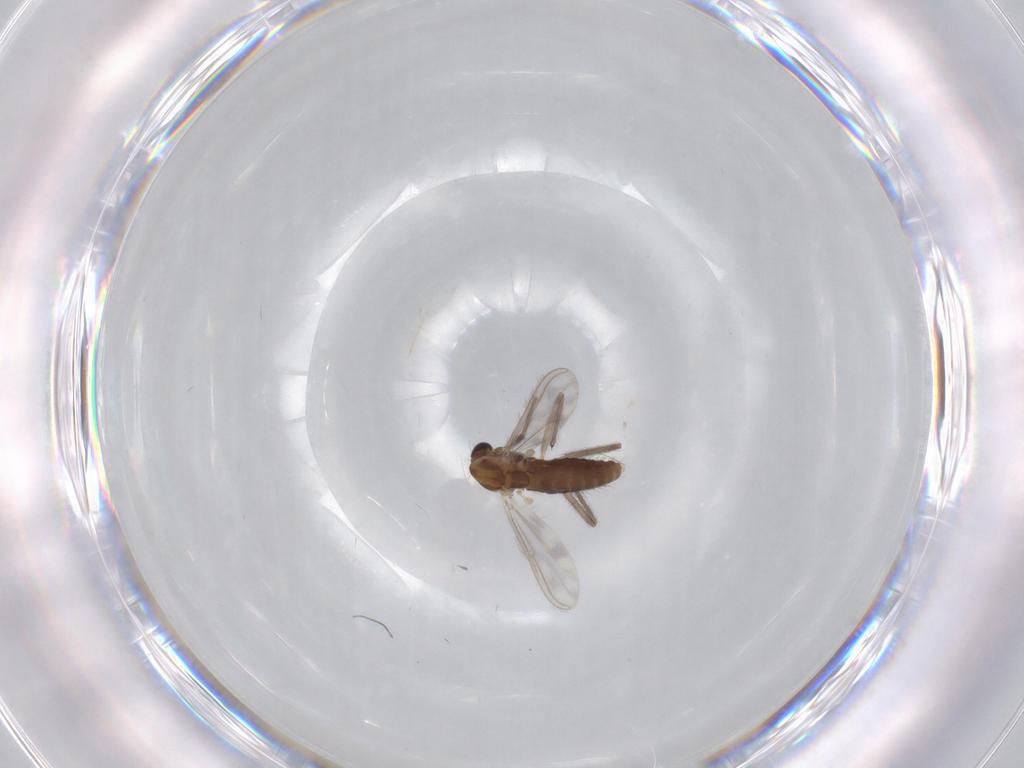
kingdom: Animalia
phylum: Arthropoda
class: Insecta
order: Diptera
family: Chironomidae
